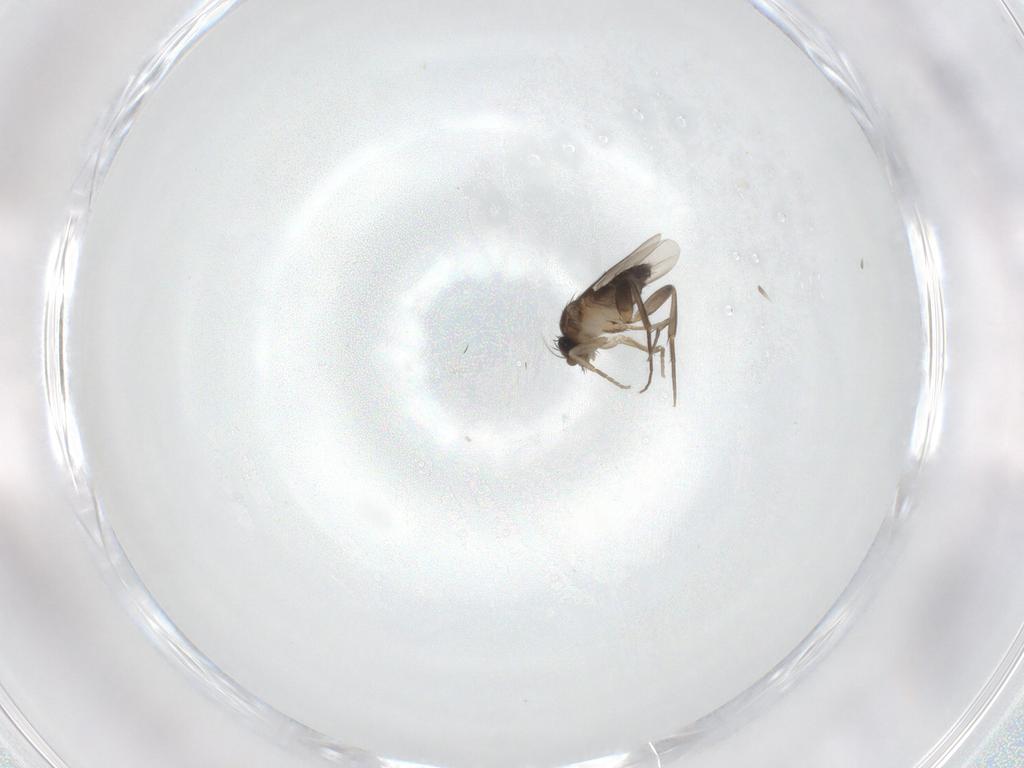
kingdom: Animalia
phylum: Arthropoda
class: Insecta
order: Diptera
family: Phoridae
